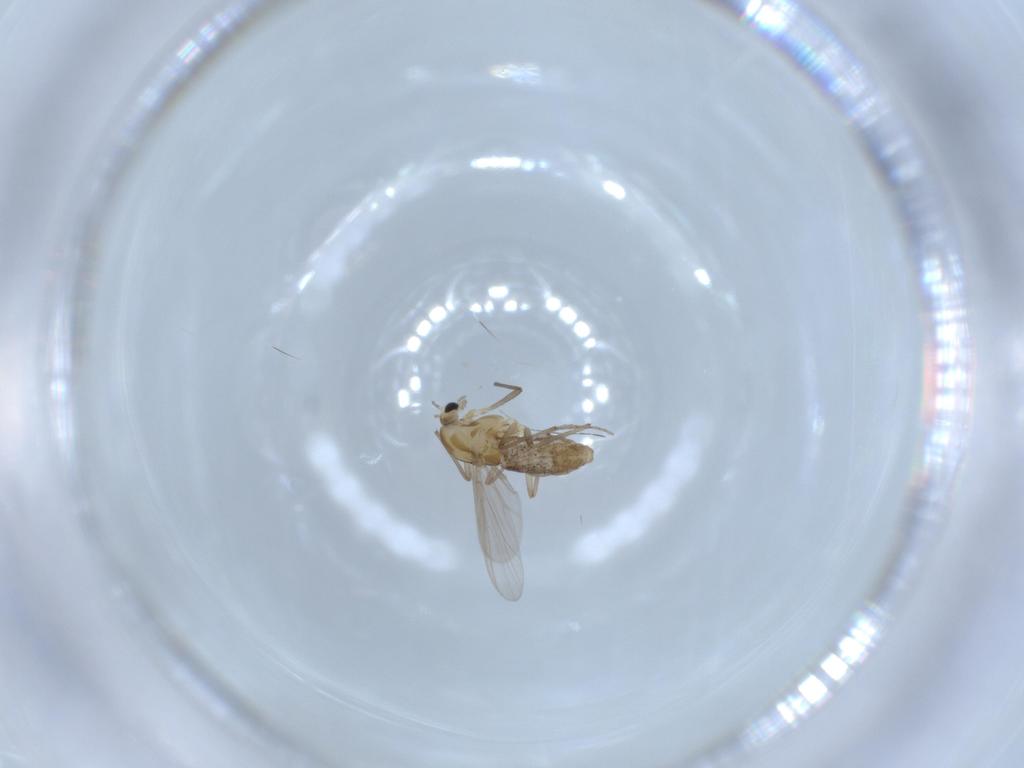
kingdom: Animalia
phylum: Arthropoda
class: Insecta
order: Diptera
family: Chironomidae
